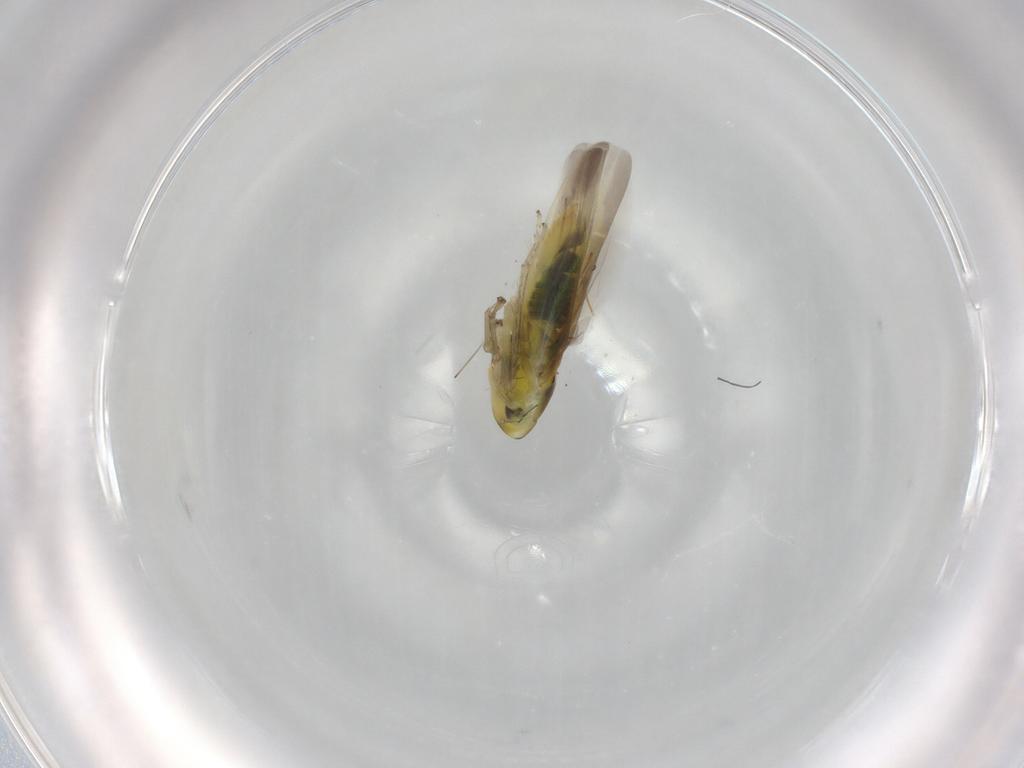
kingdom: Animalia
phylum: Arthropoda
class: Insecta
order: Hemiptera
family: Cicadellidae
